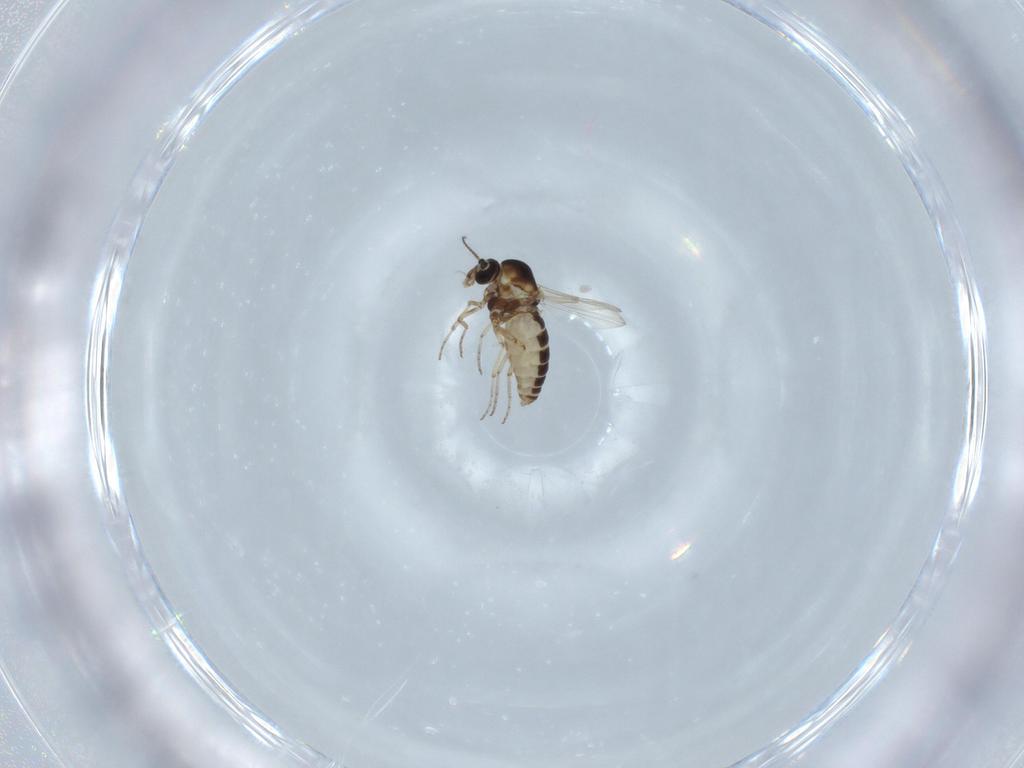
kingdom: Animalia
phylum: Arthropoda
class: Insecta
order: Diptera
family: Ceratopogonidae
